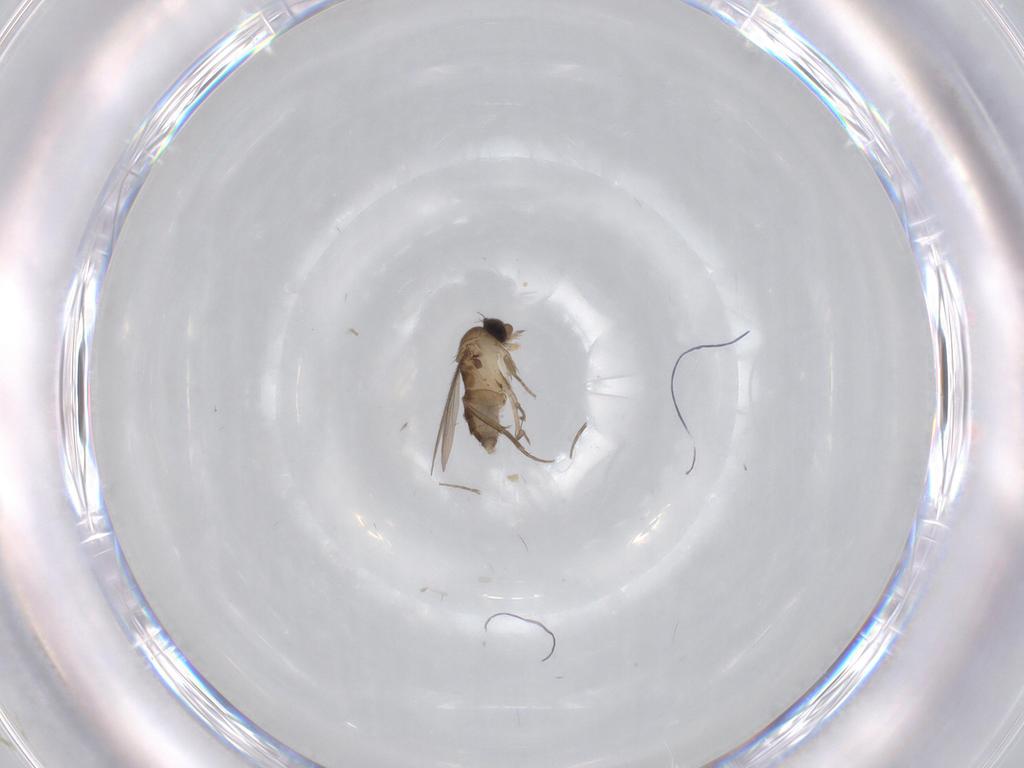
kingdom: Animalia
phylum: Arthropoda
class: Insecta
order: Diptera
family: Phoridae
